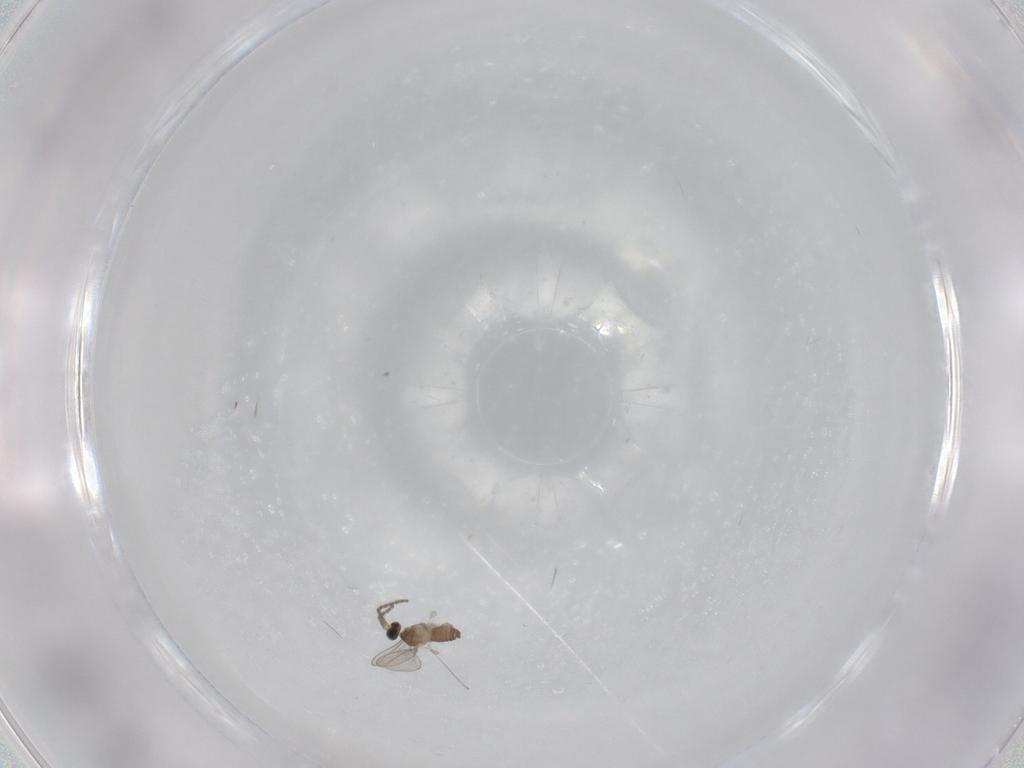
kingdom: Animalia
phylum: Arthropoda
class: Insecta
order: Diptera
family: Cecidomyiidae
